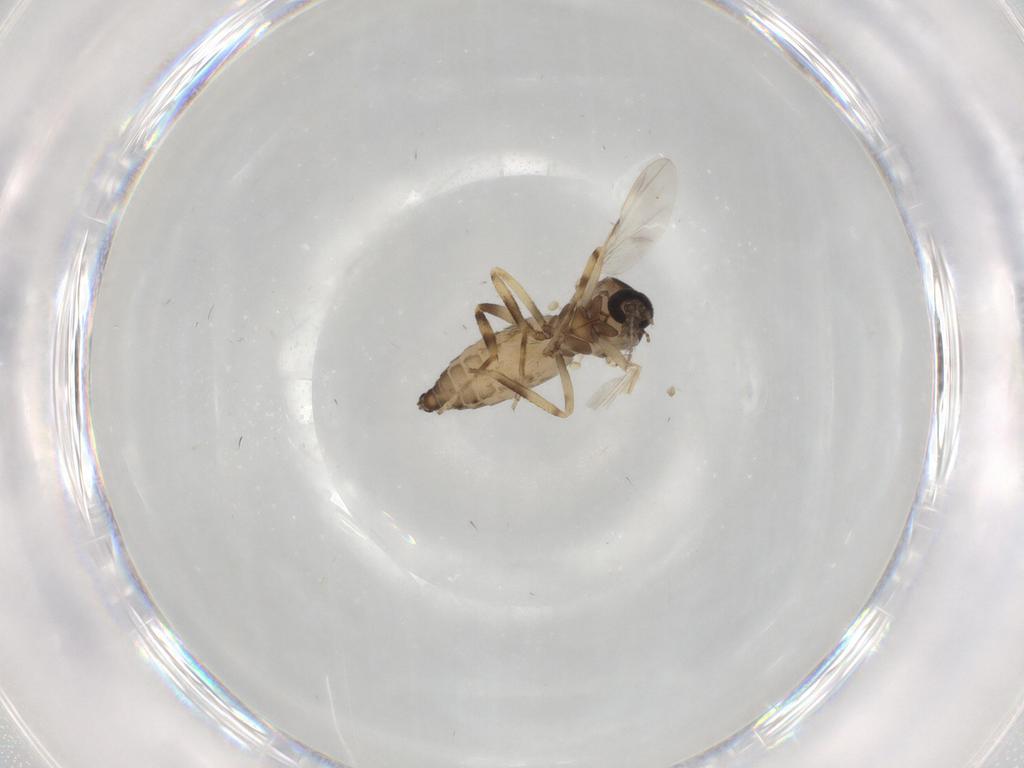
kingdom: Animalia
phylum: Arthropoda
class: Insecta
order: Diptera
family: Ceratopogonidae
